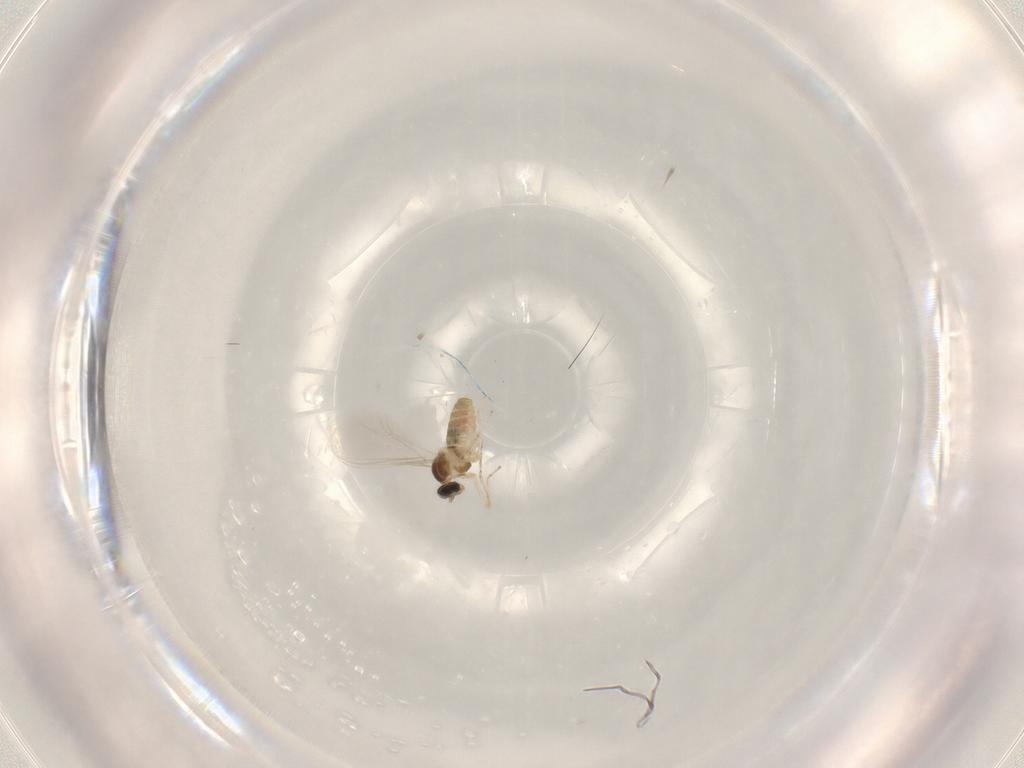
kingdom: Animalia
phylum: Arthropoda
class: Insecta
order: Diptera
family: Cecidomyiidae
